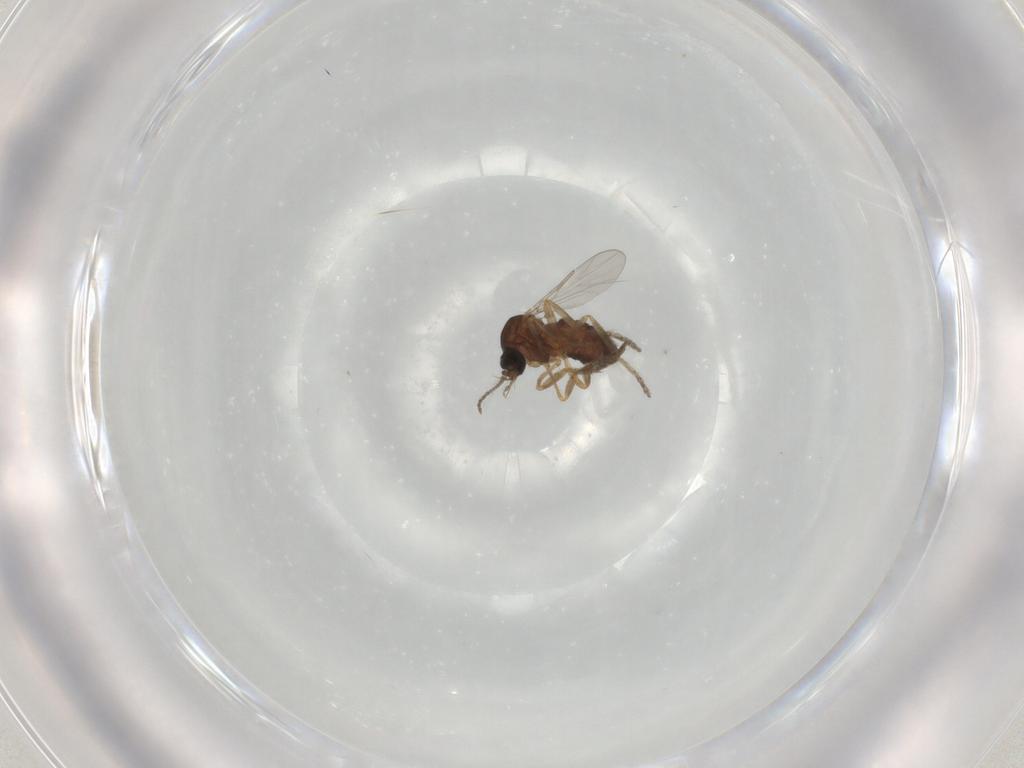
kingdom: Animalia
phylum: Arthropoda
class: Insecta
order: Diptera
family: Ceratopogonidae
